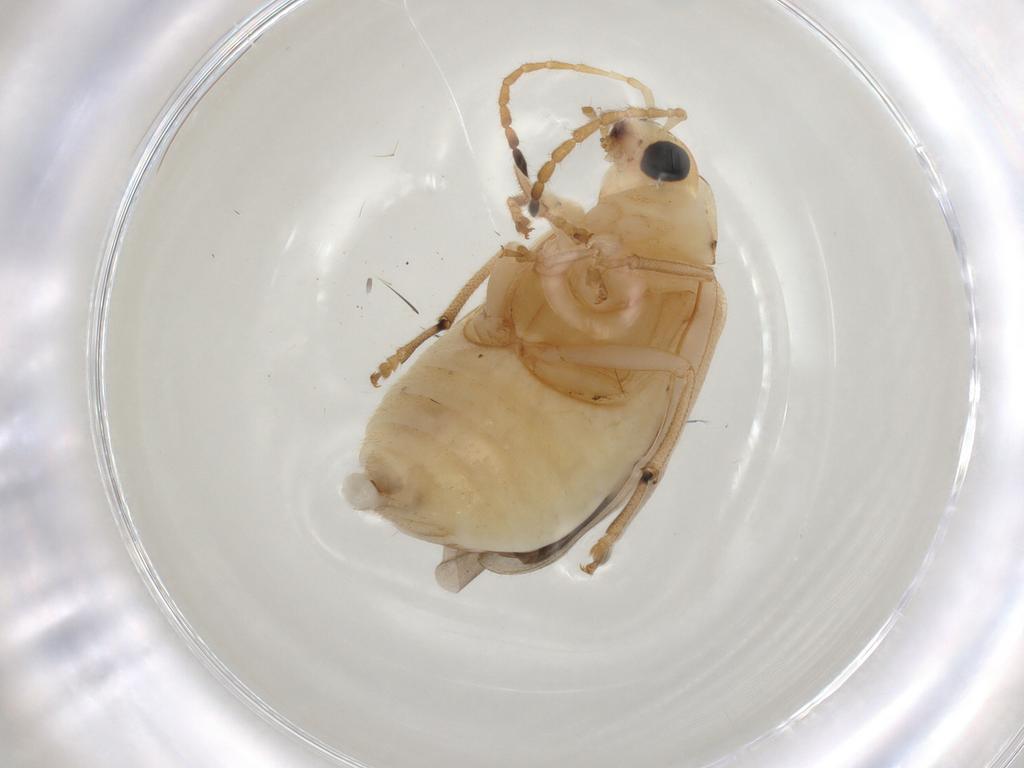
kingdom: Animalia
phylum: Arthropoda
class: Insecta
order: Coleoptera
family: Chrysomelidae
